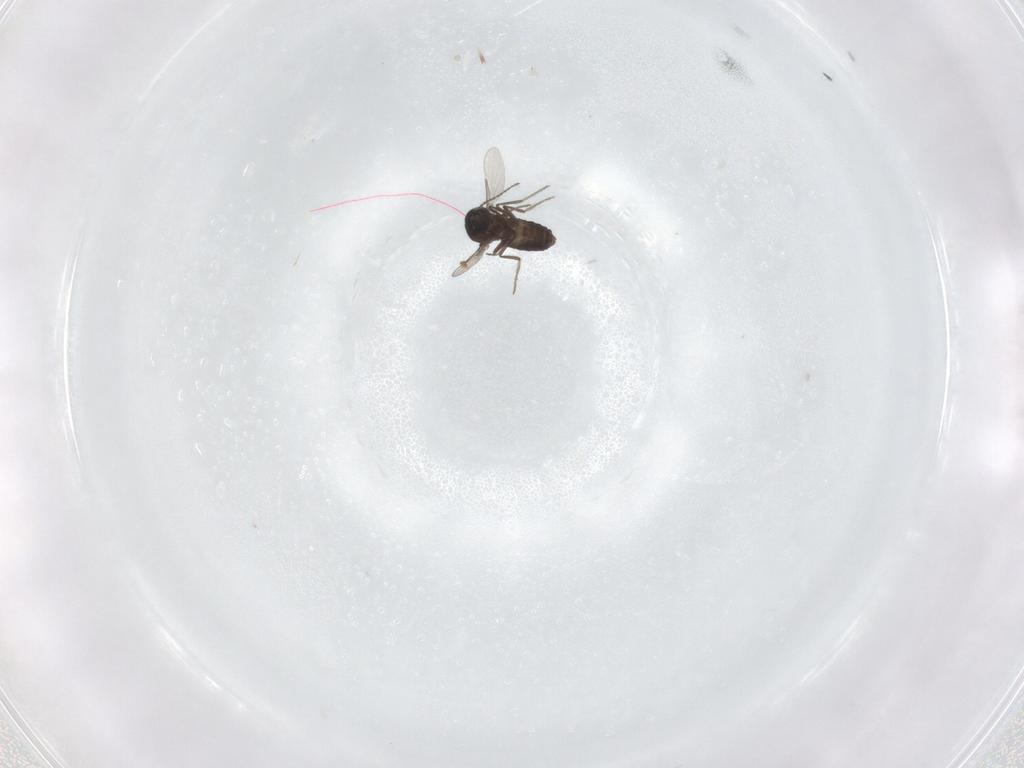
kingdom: Animalia
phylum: Arthropoda
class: Insecta
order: Diptera
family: Ceratopogonidae
